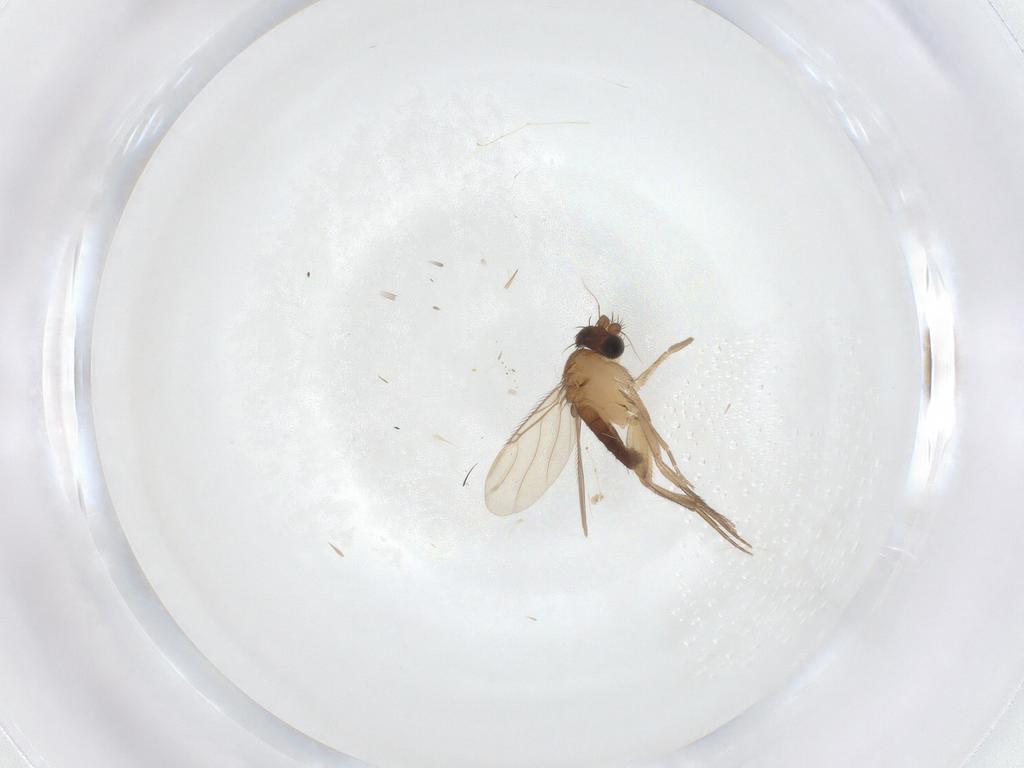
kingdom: Animalia
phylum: Arthropoda
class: Insecta
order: Diptera
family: Phoridae
